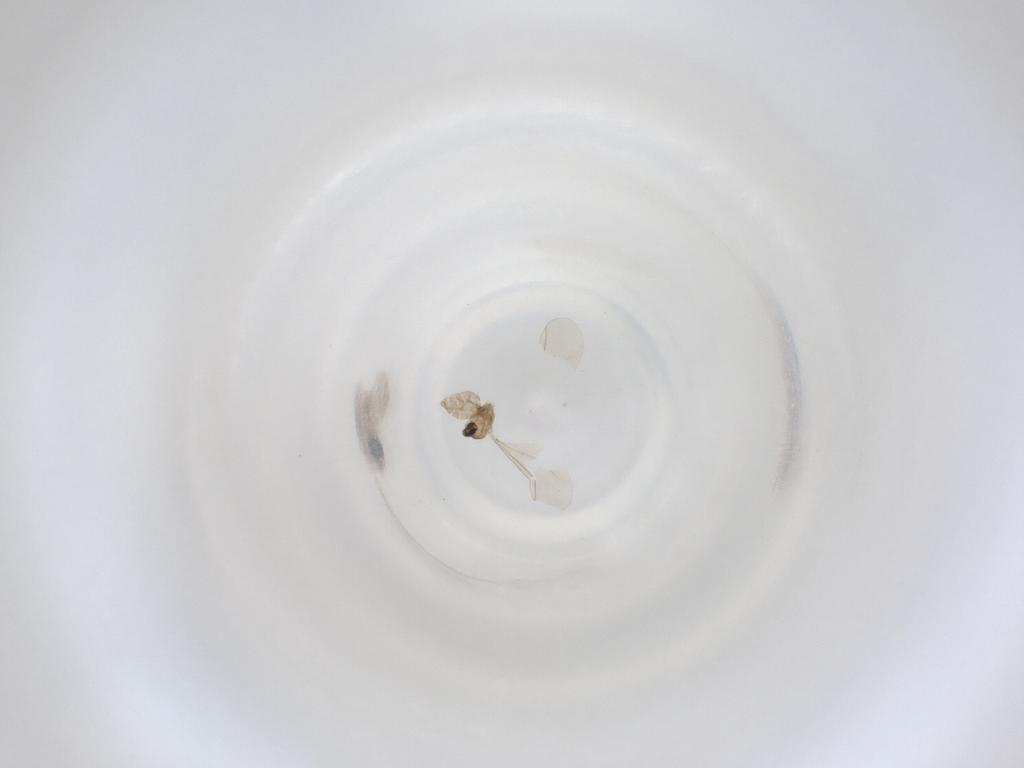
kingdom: Animalia
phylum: Arthropoda
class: Insecta
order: Diptera
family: Cecidomyiidae
